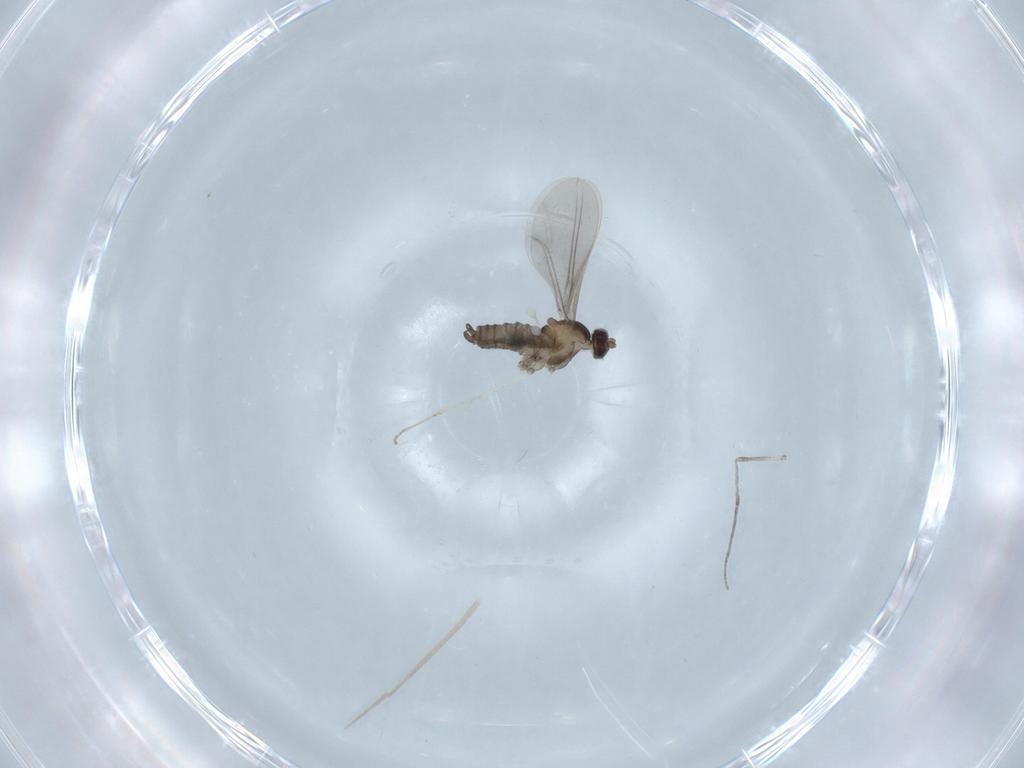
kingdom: Animalia
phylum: Arthropoda
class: Insecta
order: Diptera
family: Cecidomyiidae
